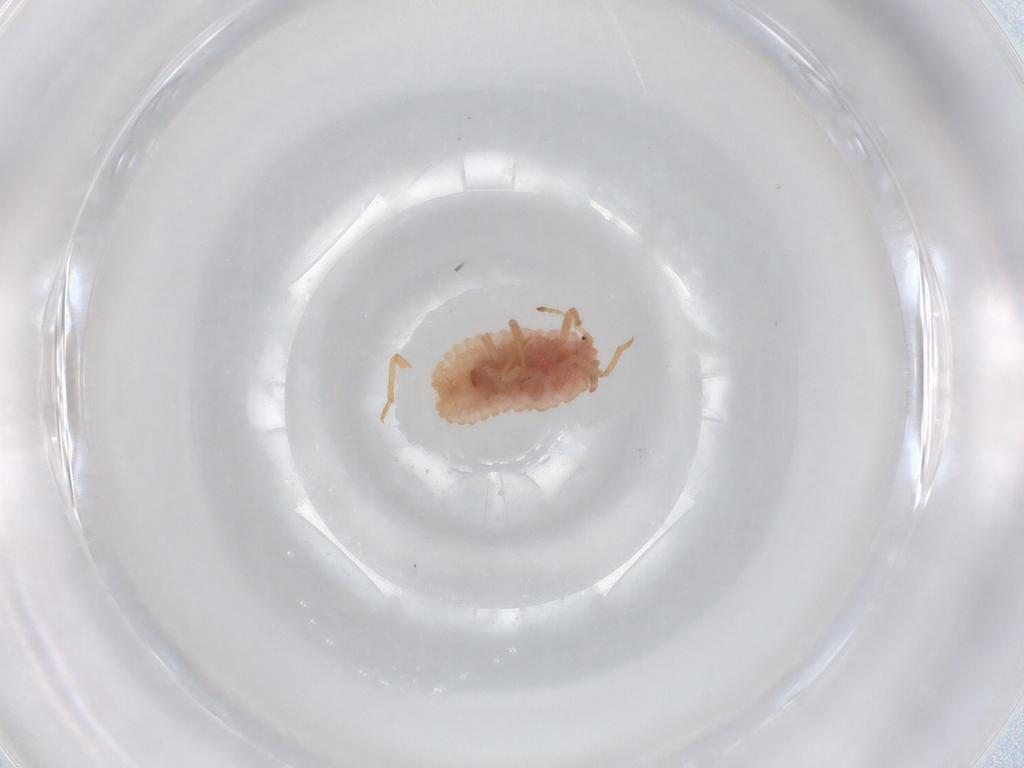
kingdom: Animalia
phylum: Arthropoda
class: Insecta
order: Hemiptera
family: Coccoidea_incertae_sedis
